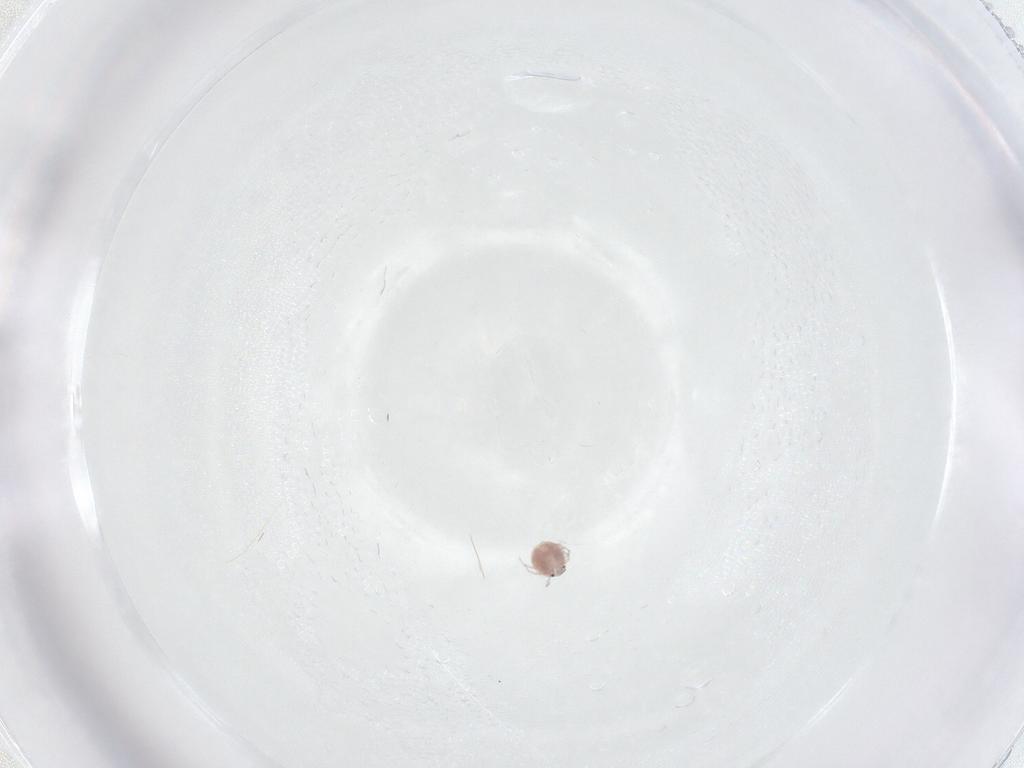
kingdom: Animalia
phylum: Arthropoda
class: Arachnida
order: Trombidiformes
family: Pionidae
